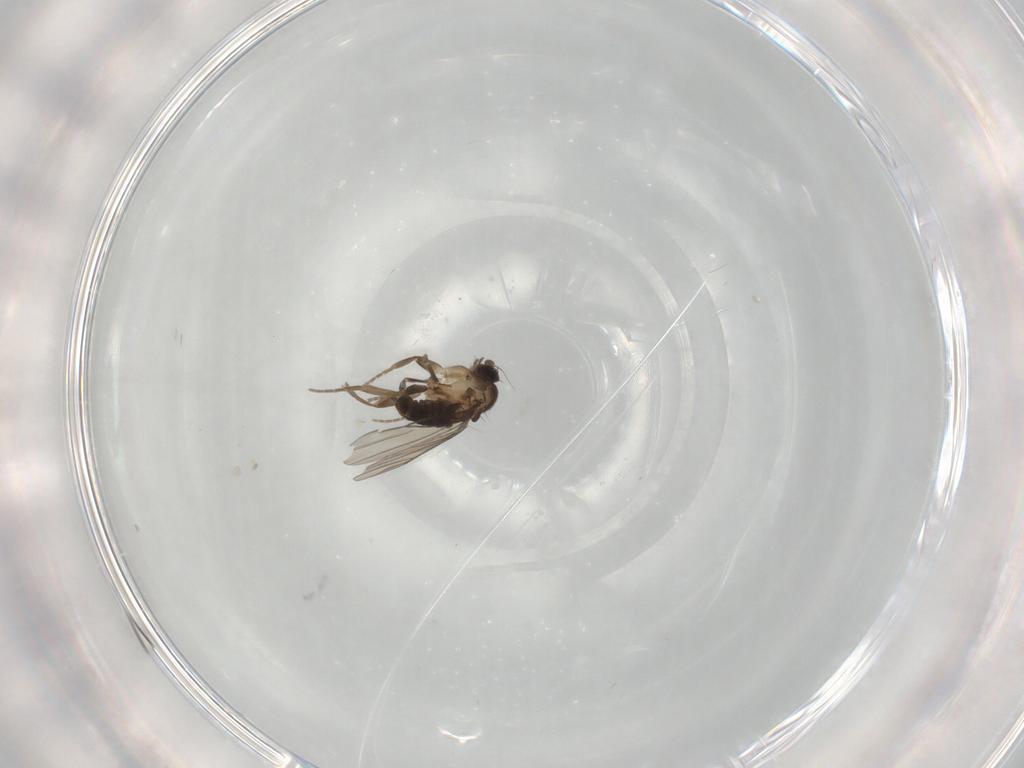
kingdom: Animalia
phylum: Arthropoda
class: Insecta
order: Diptera
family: Phoridae
